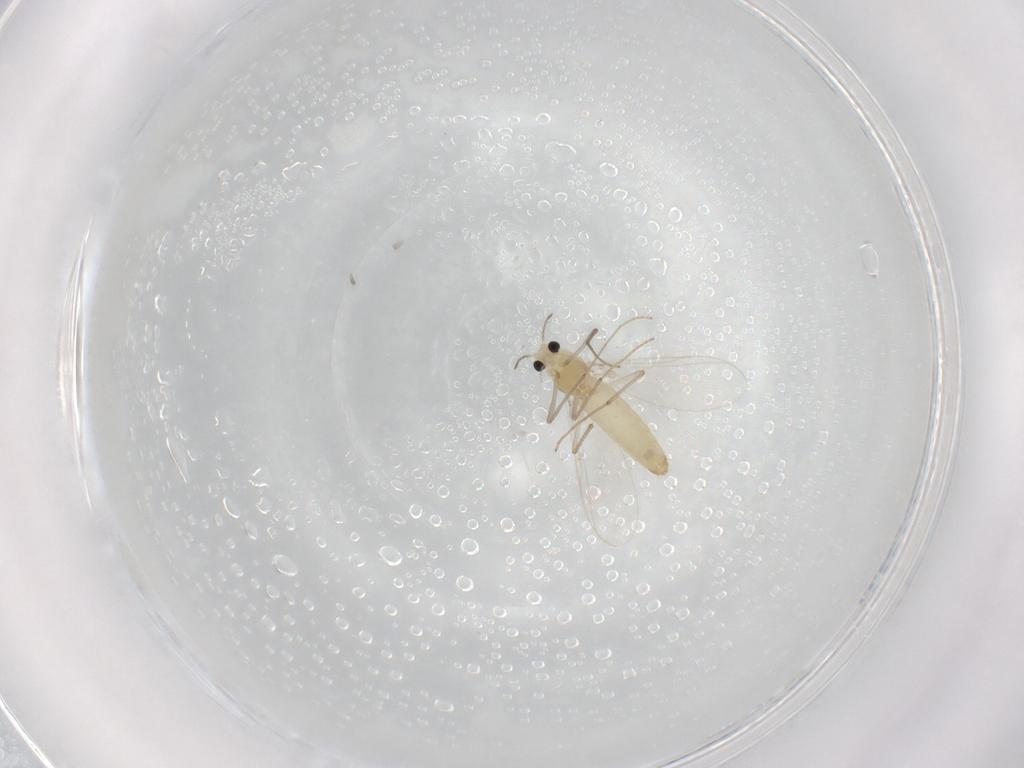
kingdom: Animalia
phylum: Arthropoda
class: Insecta
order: Diptera
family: Chironomidae
